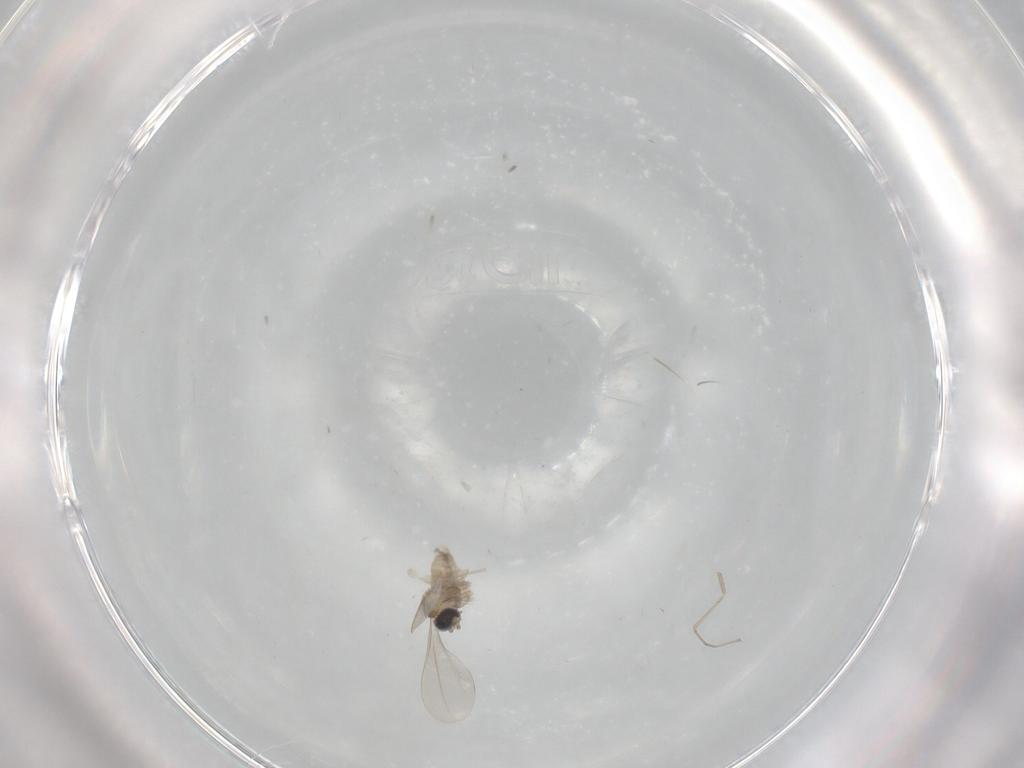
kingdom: Animalia
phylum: Arthropoda
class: Insecta
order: Diptera
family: Cecidomyiidae
